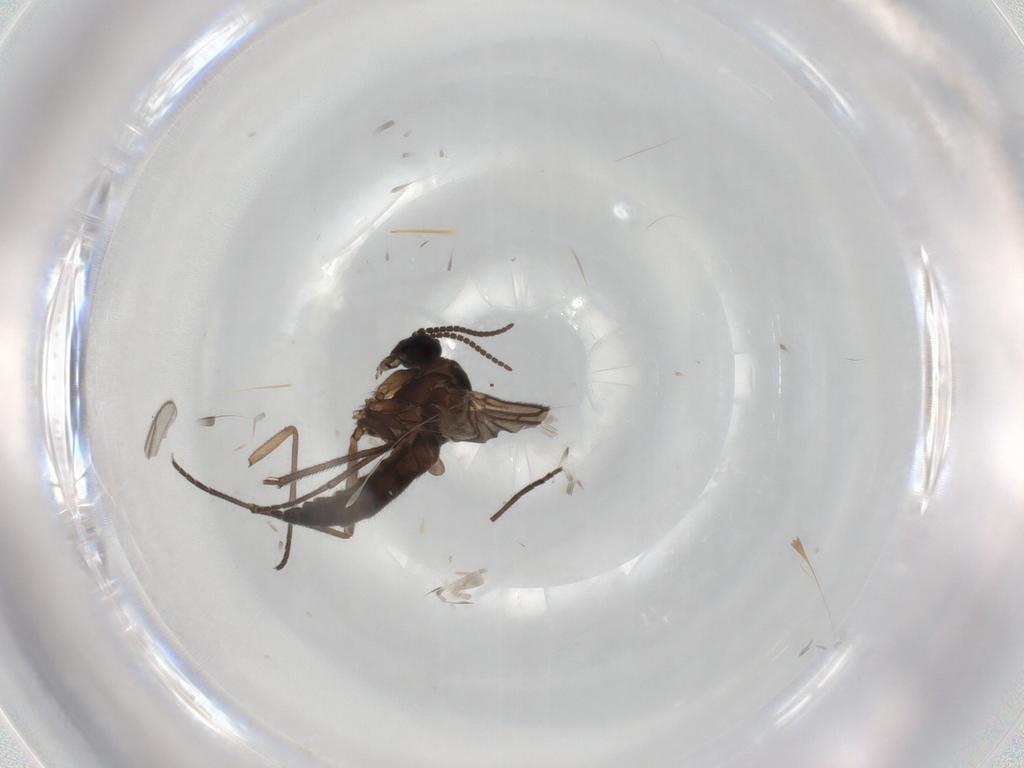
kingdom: Animalia
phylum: Arthropoda
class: Insecta
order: Diptera
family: Sciaridae
